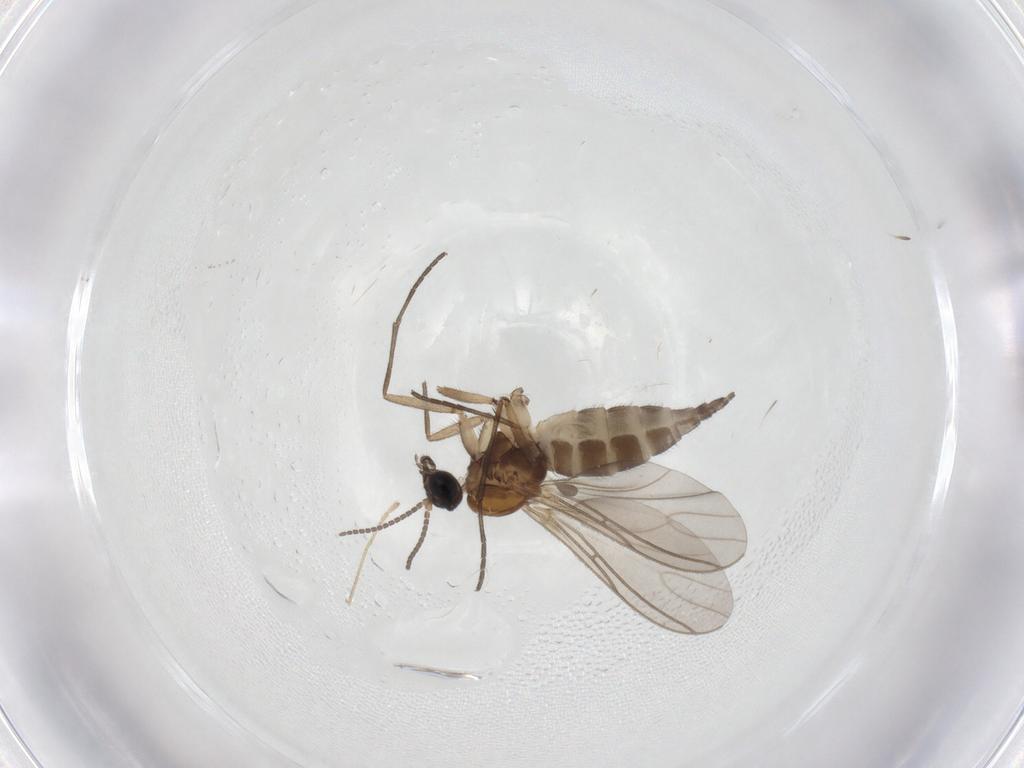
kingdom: Animalia
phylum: Arthropoda
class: Insecta
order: Diptera
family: Limoniidae
